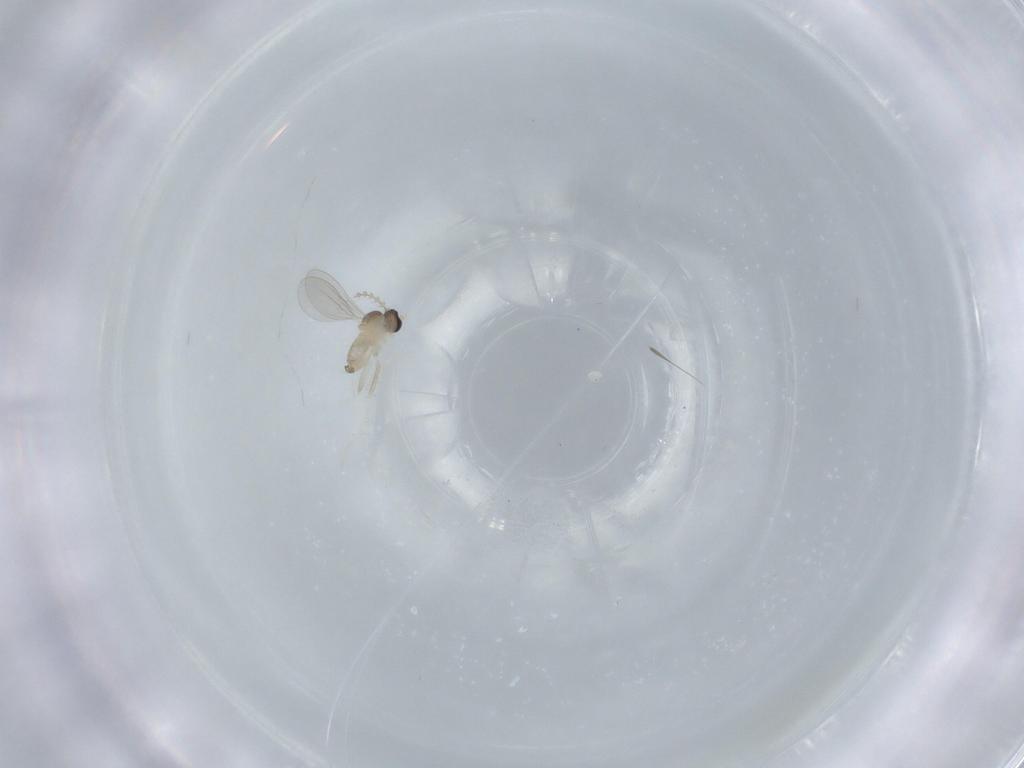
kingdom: Animalia
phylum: Arthropoda
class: Insecta
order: Diptera
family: Cecidomyiidae
